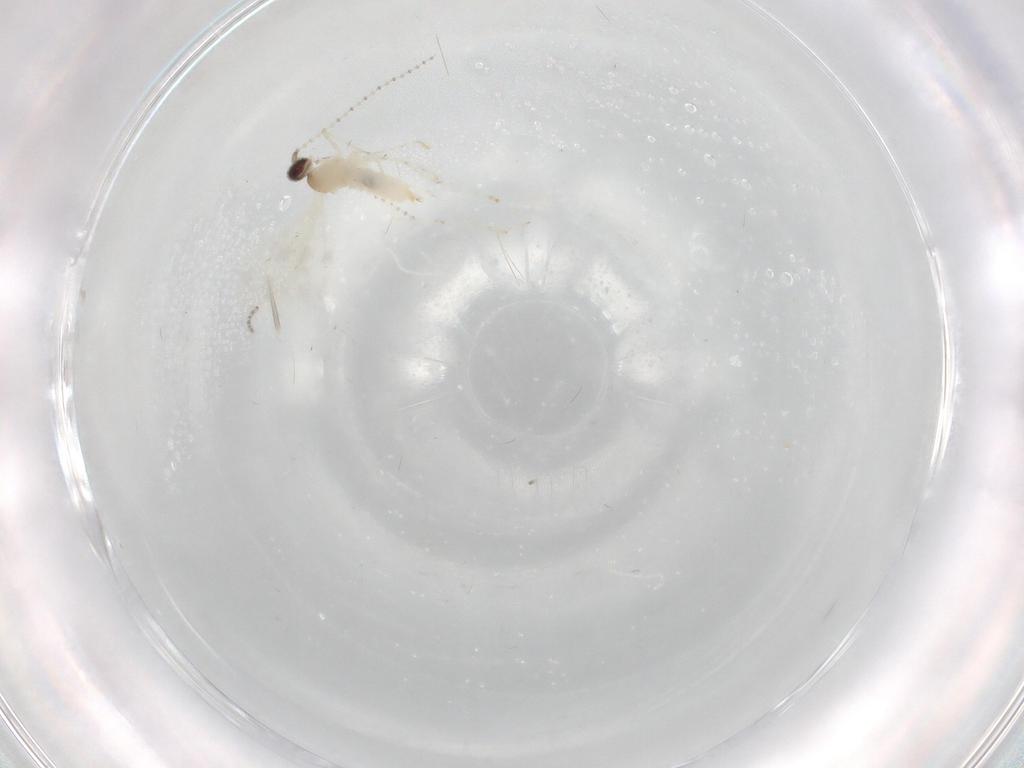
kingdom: Animalia
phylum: Arthropoda
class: Insecta
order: Diptera
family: Cecidomyiidae
